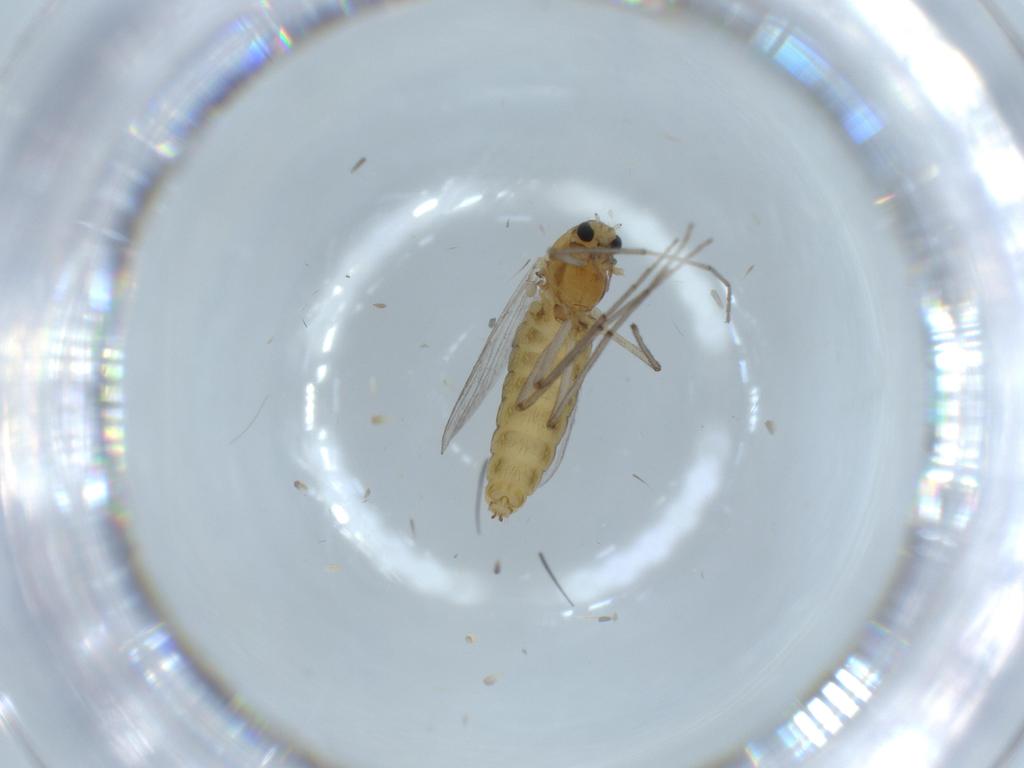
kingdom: Animalia
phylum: Arthropoda
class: Insecta
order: Diptera
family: Chironomidae
